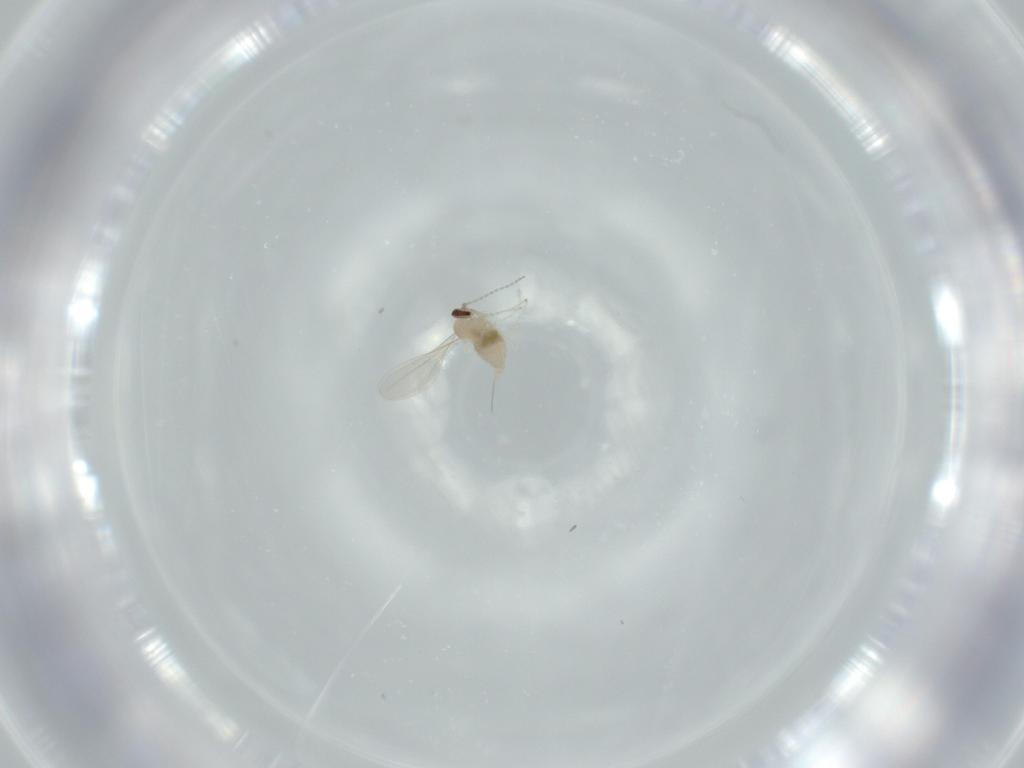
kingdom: Animalia
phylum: Arthropoda
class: Insecta
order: Diptera
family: Cecidomyiidae
